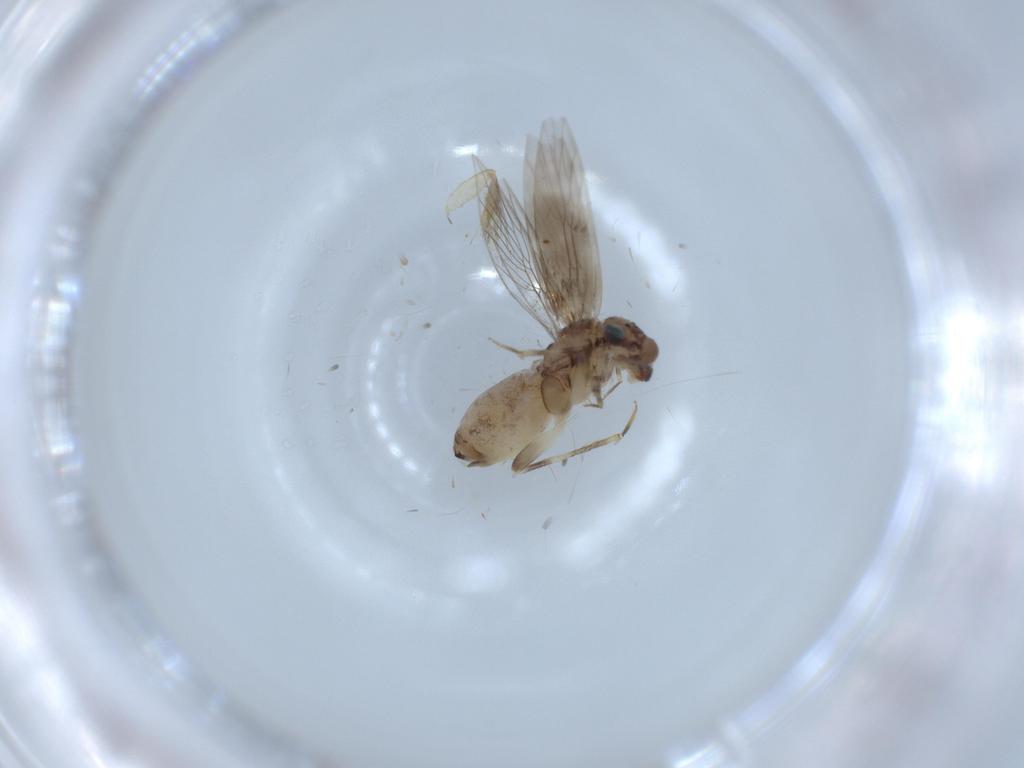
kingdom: Animalia
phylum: Arthropoda
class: Insecta
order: Psocodea
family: Lepidopsocidae
